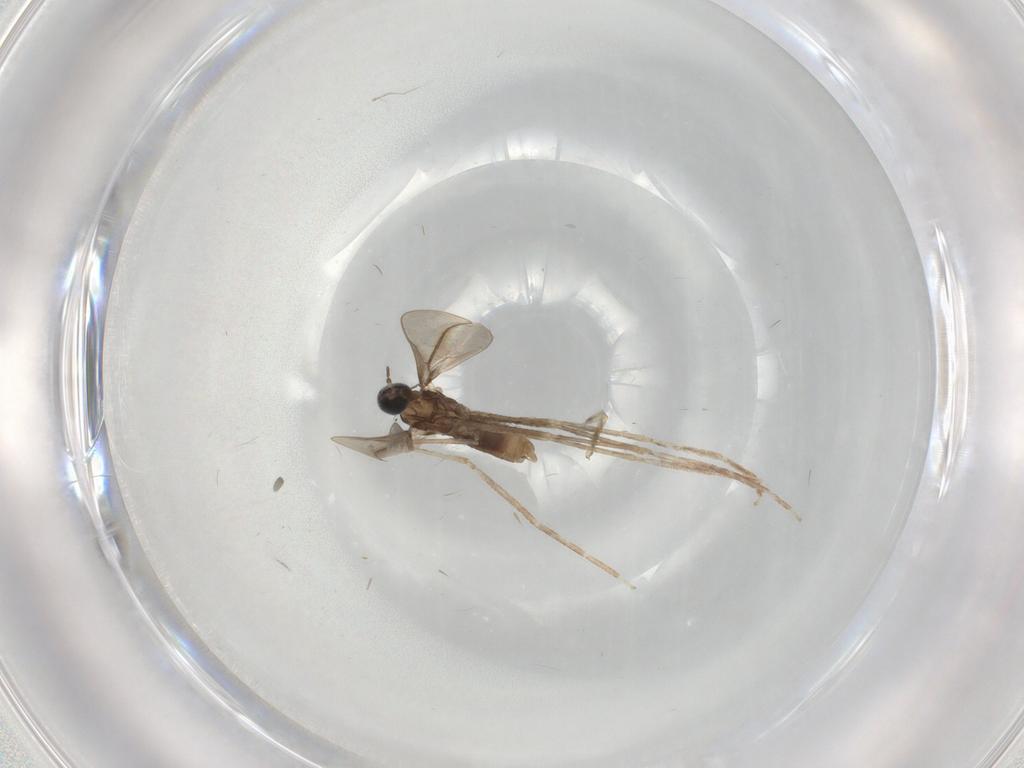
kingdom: Animalia
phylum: Arthropoda
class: Insecta
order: Diptera
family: Cecidomyiidae
